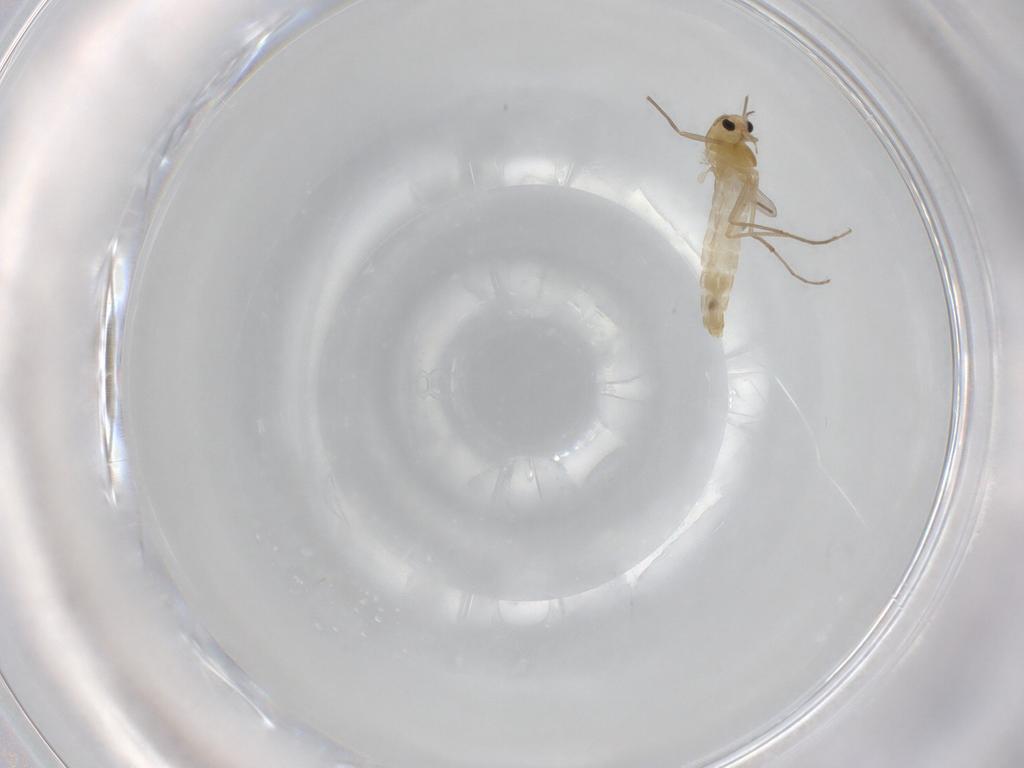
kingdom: Animalia
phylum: Arthropoda
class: Insecta
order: Diptera
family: Chironomidae
